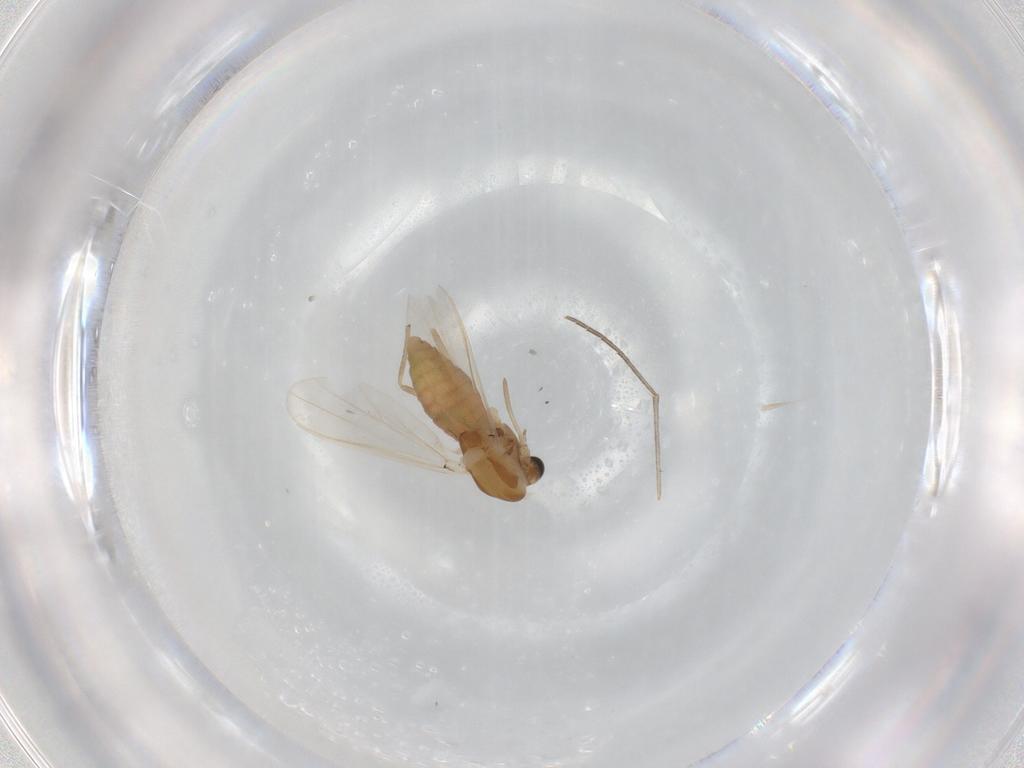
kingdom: Animalia
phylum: Arthropoda
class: Insecta
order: Diptera
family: Chironomidae
